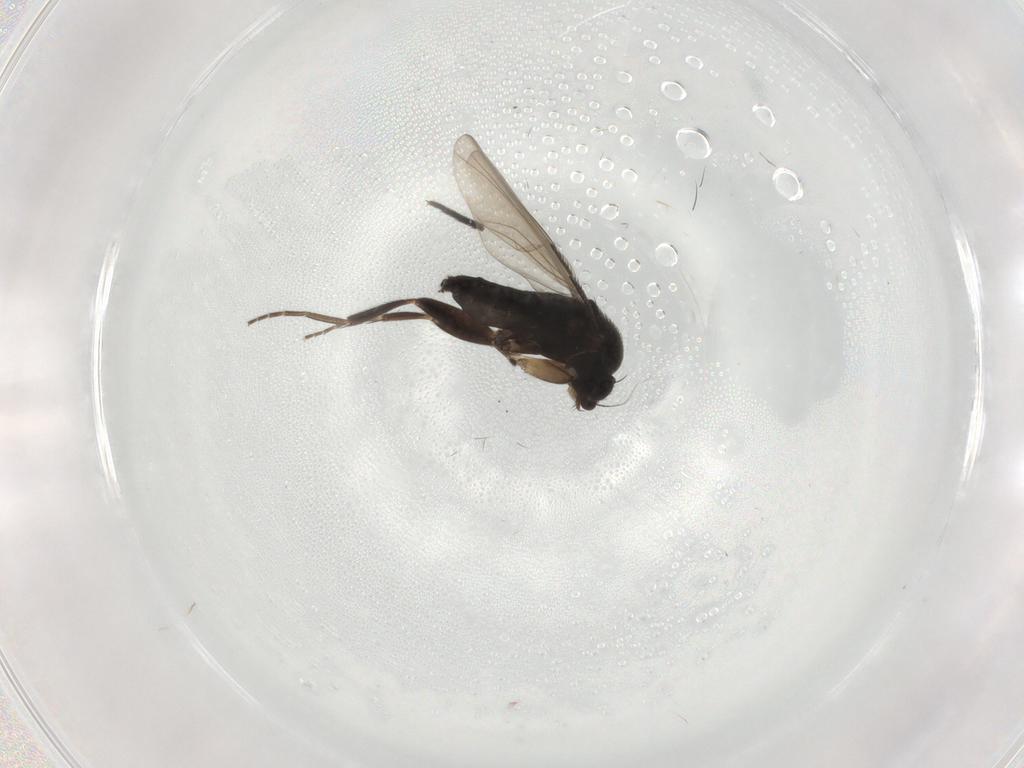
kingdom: Animalia
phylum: Arthropoda
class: Insecta
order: Diptera
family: Phoridae
